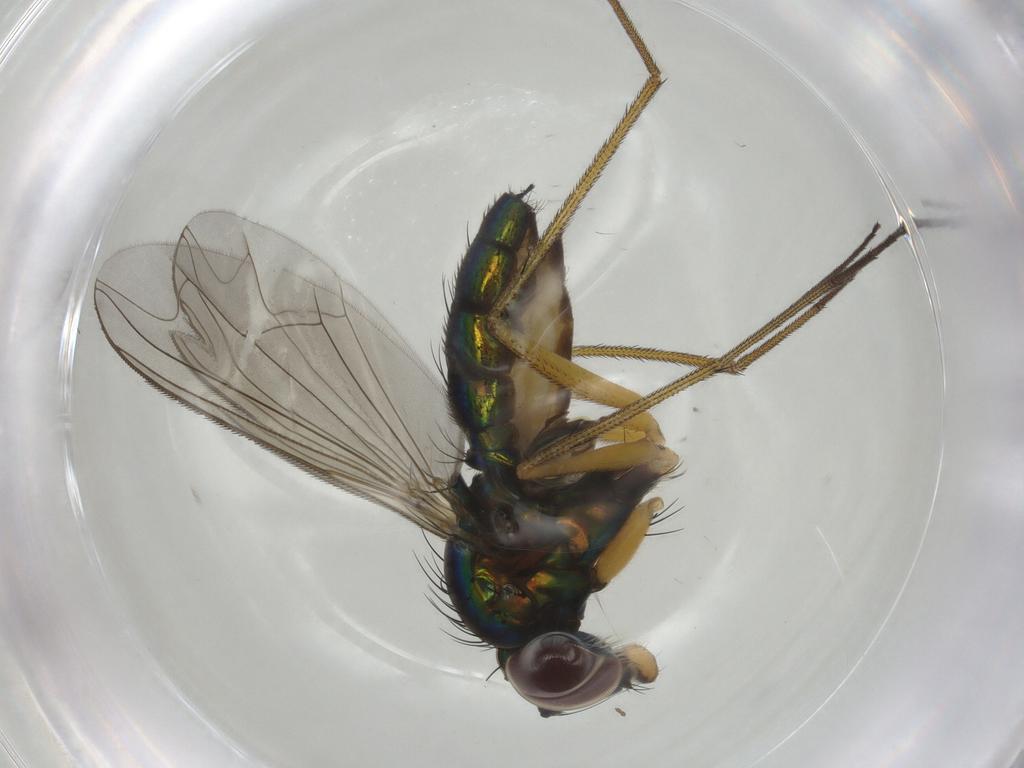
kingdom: Animalia
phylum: Arthropoda
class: Insecta
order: Diptera
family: Dolichopodidae
